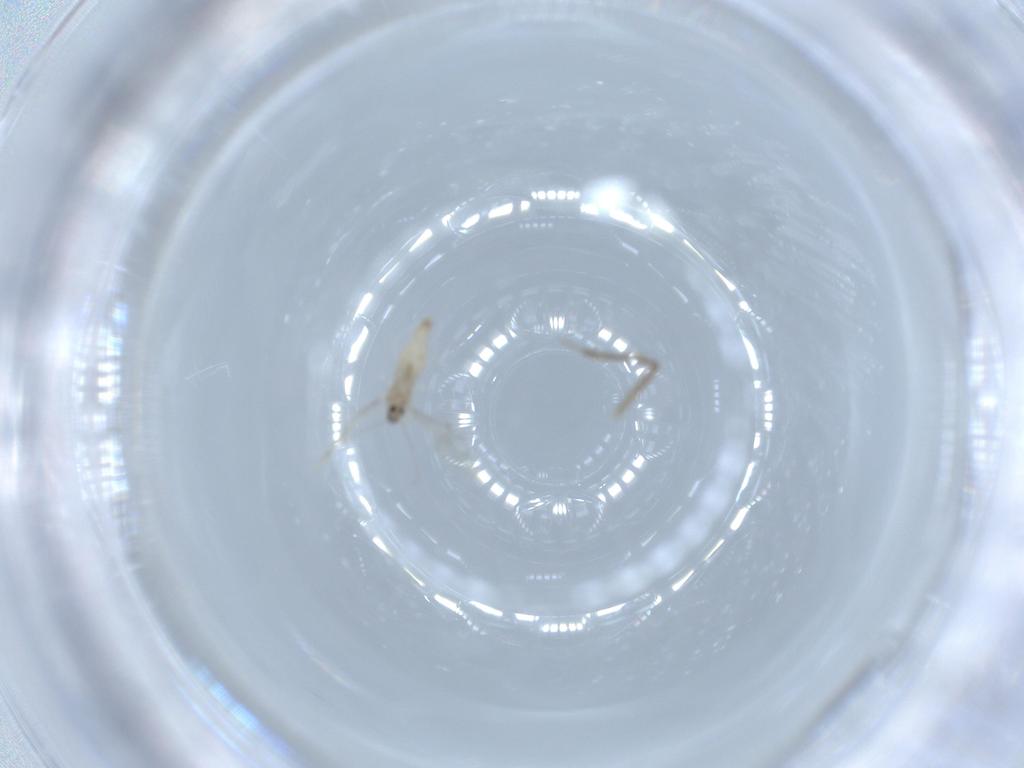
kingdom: Animalia
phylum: Arthropoda
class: Insecta
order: Diptera
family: Cecidomyiidae
